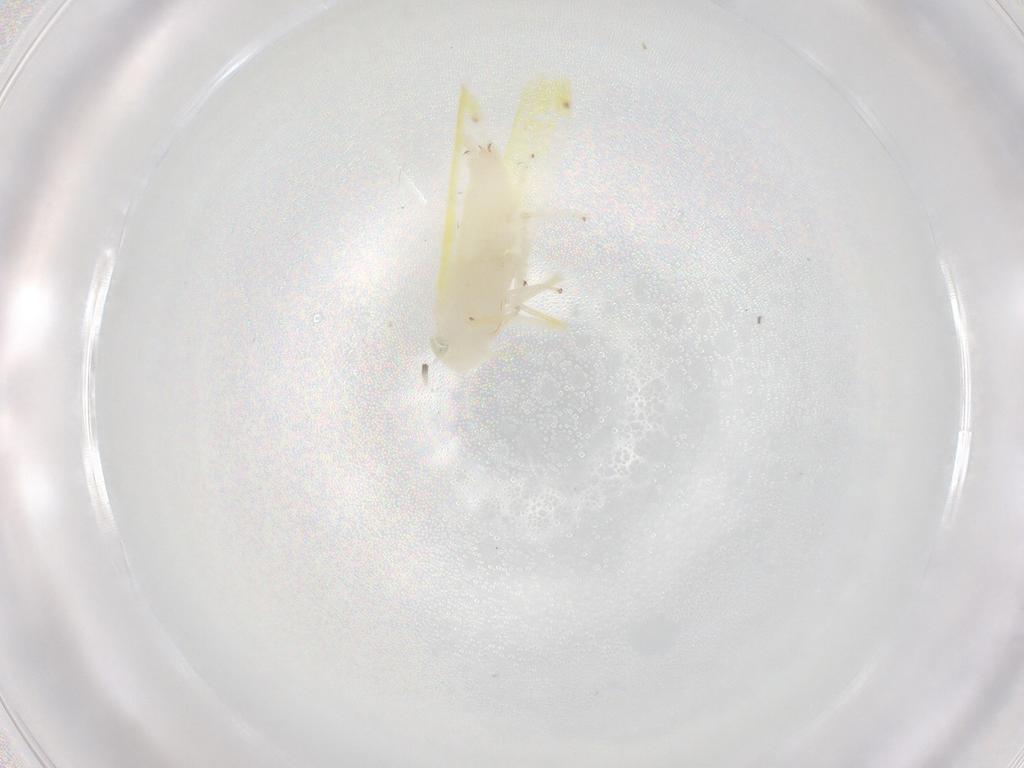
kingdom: Animalia
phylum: Arthropoda
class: Insecta
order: Hemiptera
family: Cicadellidae
